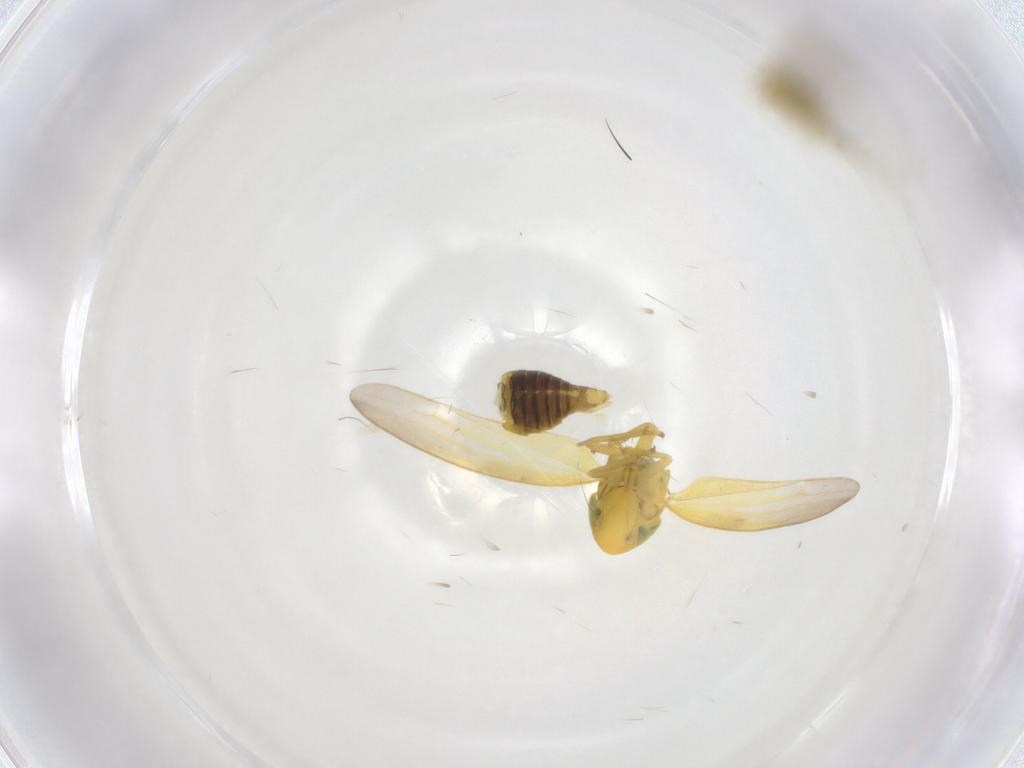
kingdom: Animalia
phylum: Arthropoda
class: Insecta
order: Hemiptera
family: Cicadellidae
